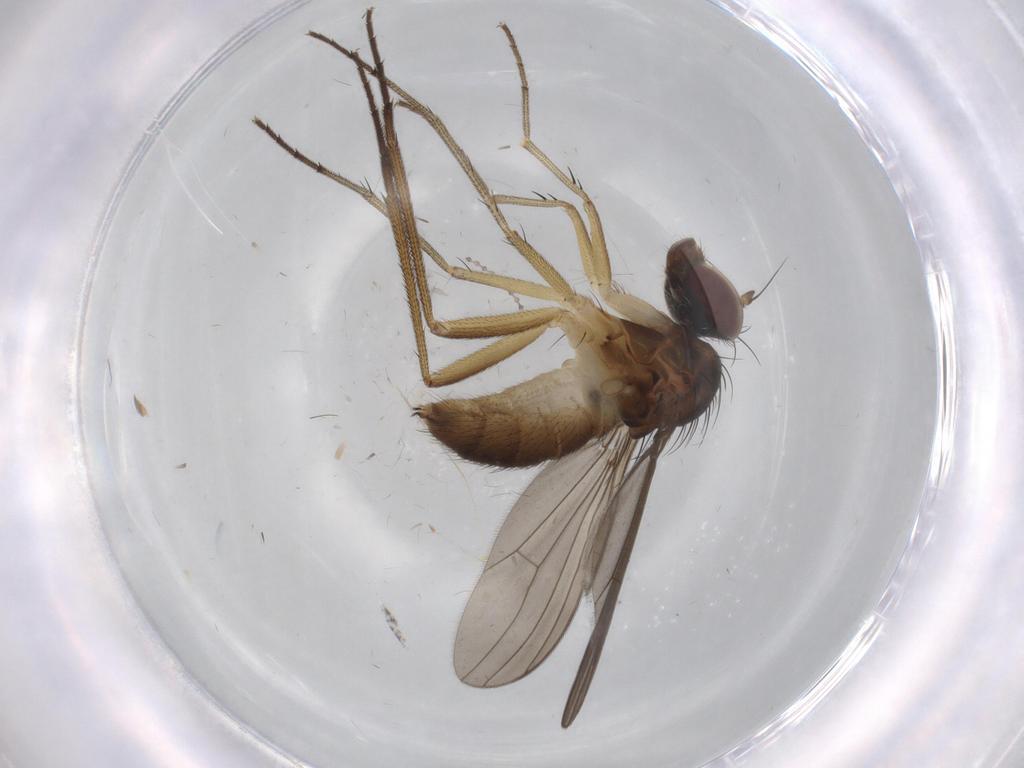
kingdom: Animalia
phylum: Arthropoda
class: Insecta
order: Diptera
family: Dolichopodidae
